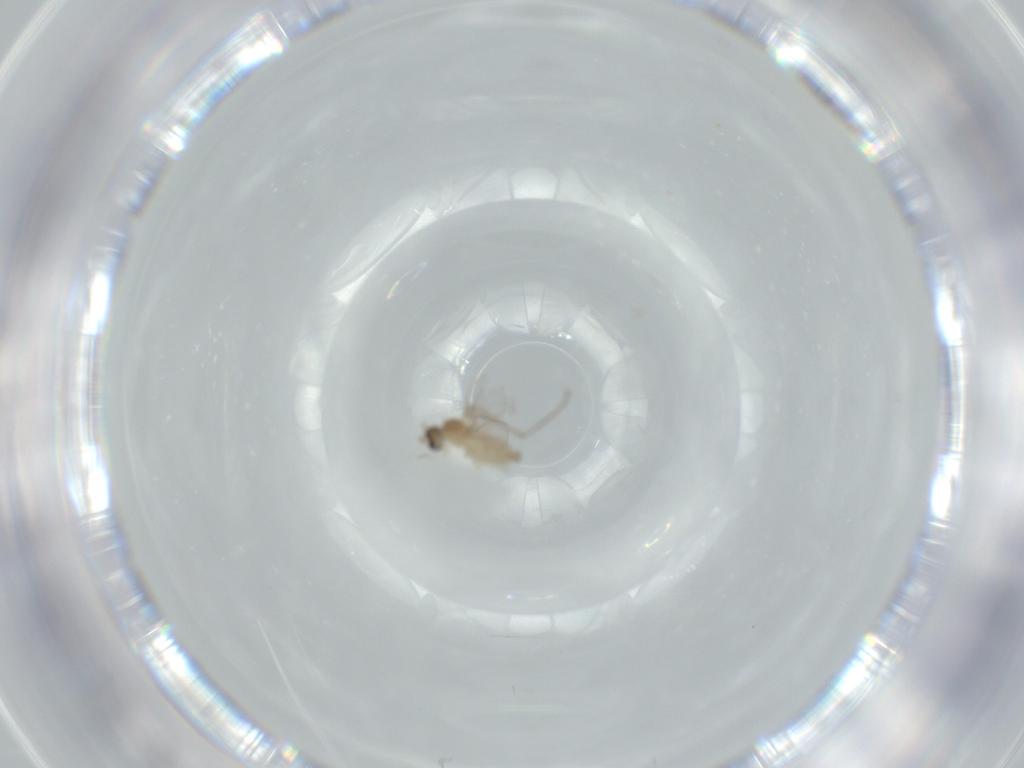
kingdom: Animalia
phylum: Arthropoda
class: Insecta
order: Diptera
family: Cecidomyiidae
